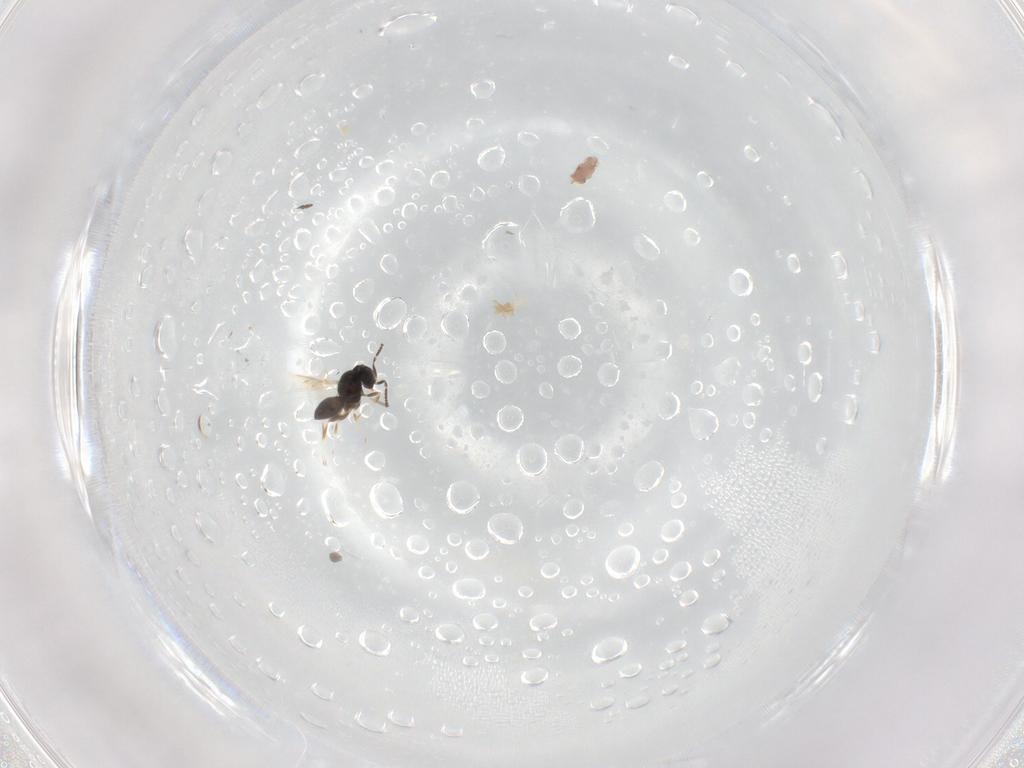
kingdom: Animalia
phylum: Arthropoda
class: Insecta
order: Hymenoptera
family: Scelionidae
